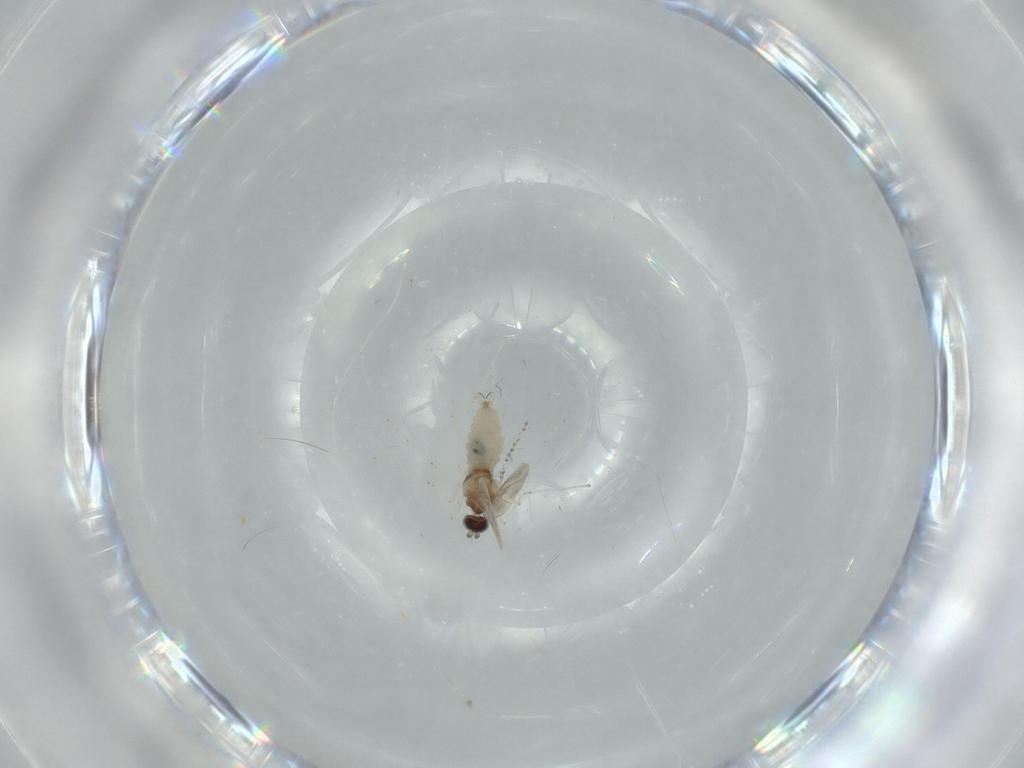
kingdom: Animalia
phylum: Arthropoda
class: Insecta
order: Diptera
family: Cecidomyiidae
